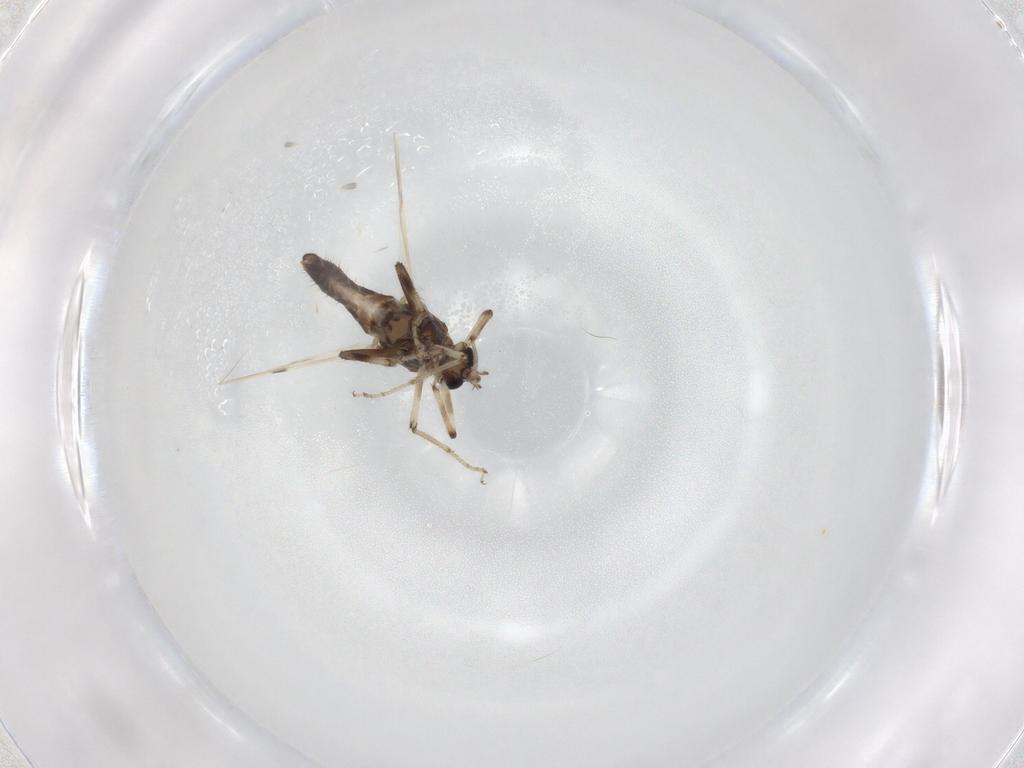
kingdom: Animalia
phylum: Arthropoda
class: Insecta
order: Diptera
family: Ceratopogonidae
